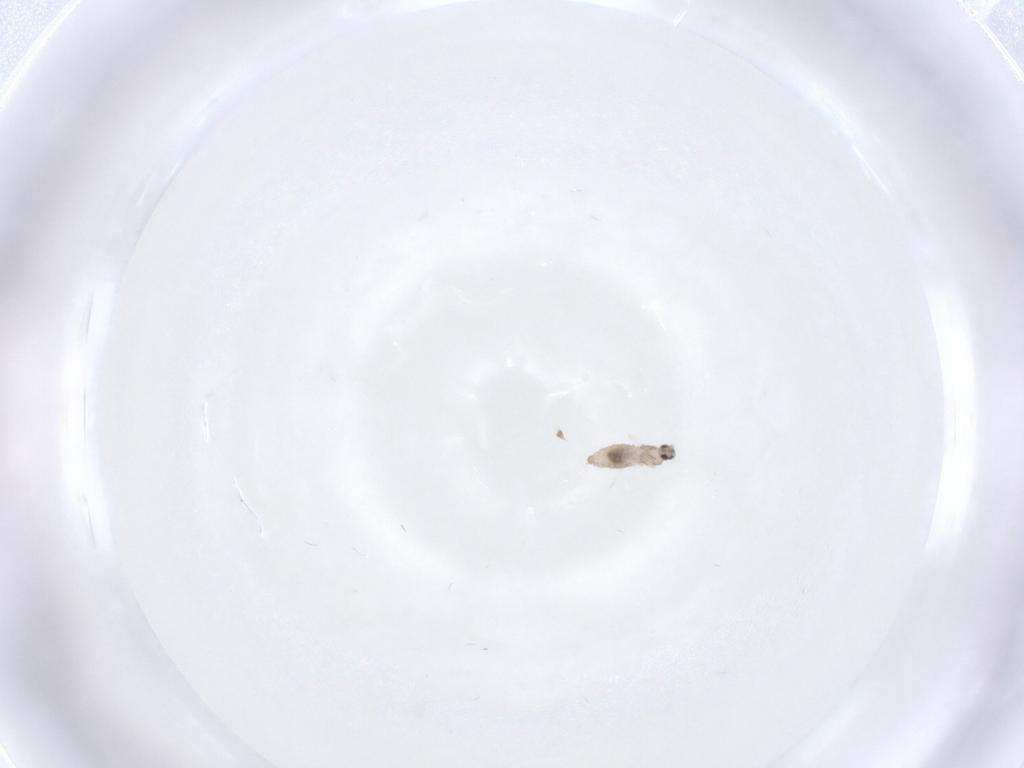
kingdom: Animalia
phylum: Arthropoda
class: Insecta
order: Diptera
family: Cecidomyiidae
